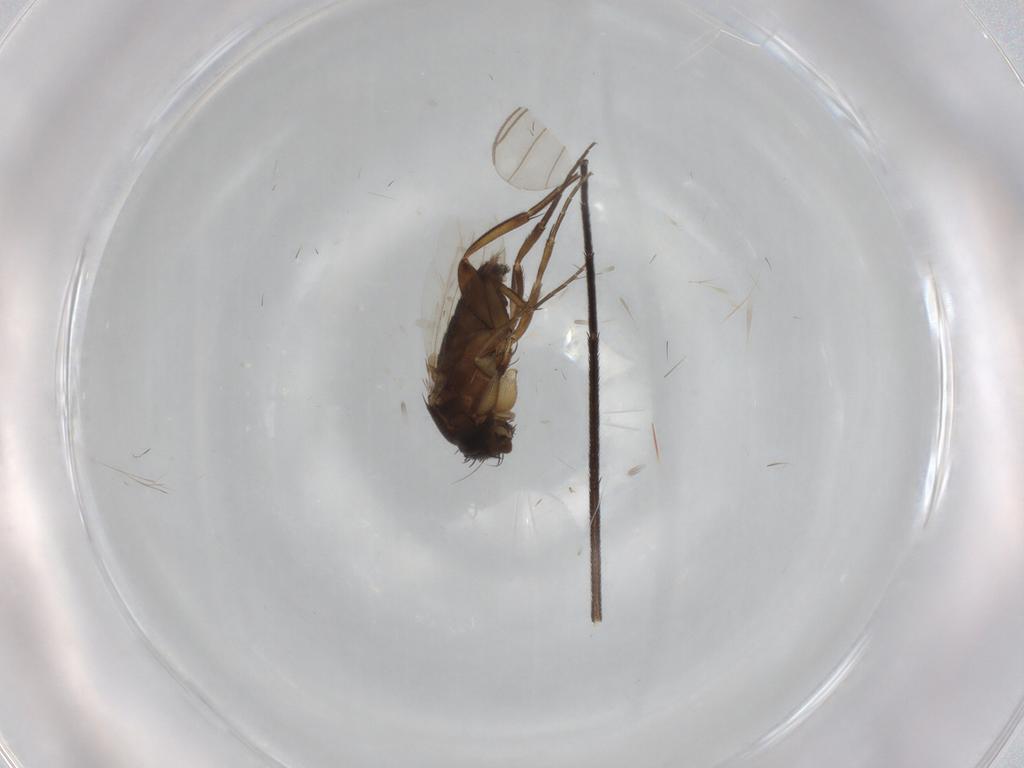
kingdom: Animalia
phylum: Arthropoda
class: Insecta
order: Diptera
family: Phoridae
